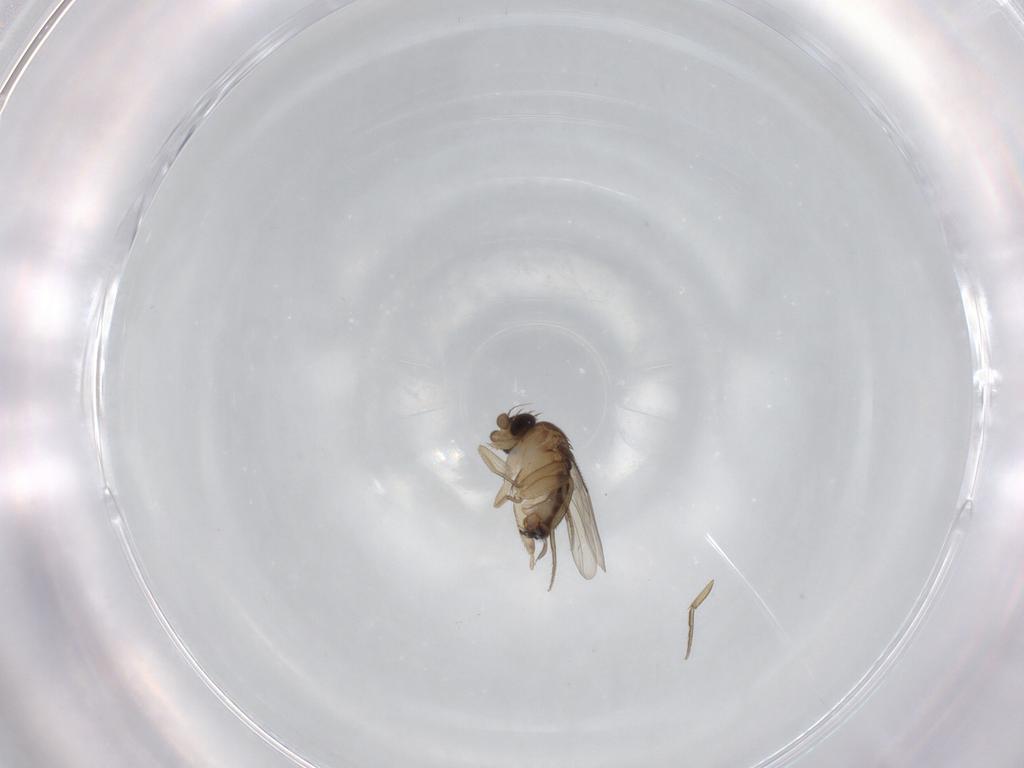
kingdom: Animalia
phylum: Arthropoda
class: Insecta
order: Diptera
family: Phoridae
